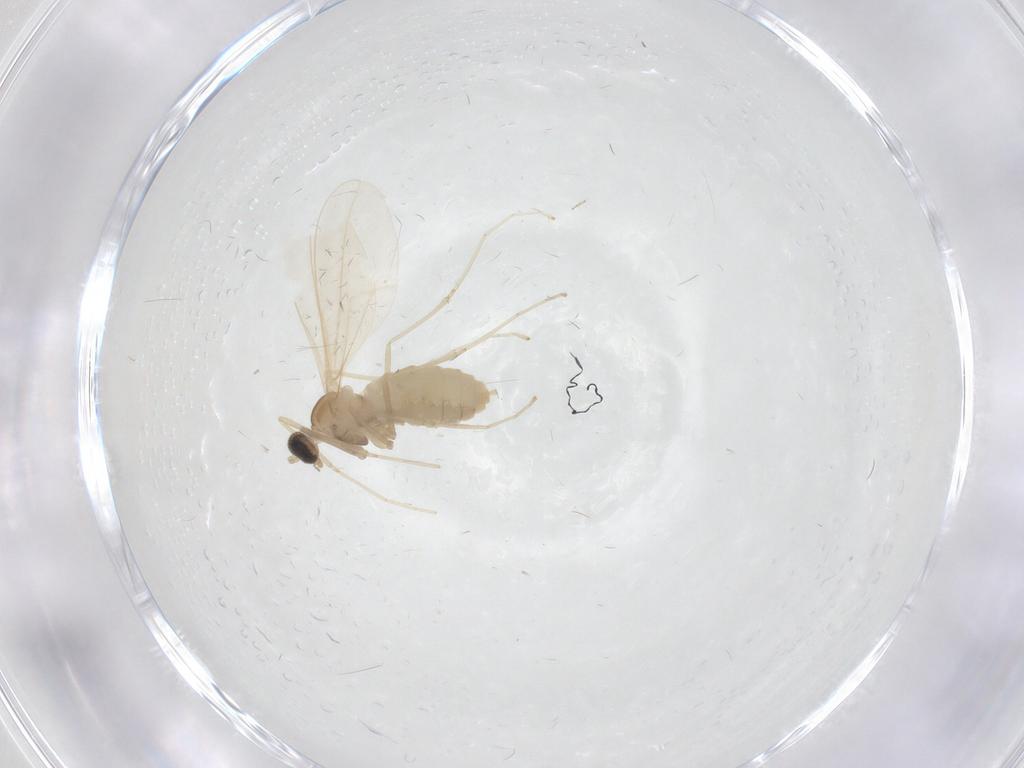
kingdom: Animalia
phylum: Arthropoda
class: Insecta
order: Diptera
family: Cecidomyiidae
